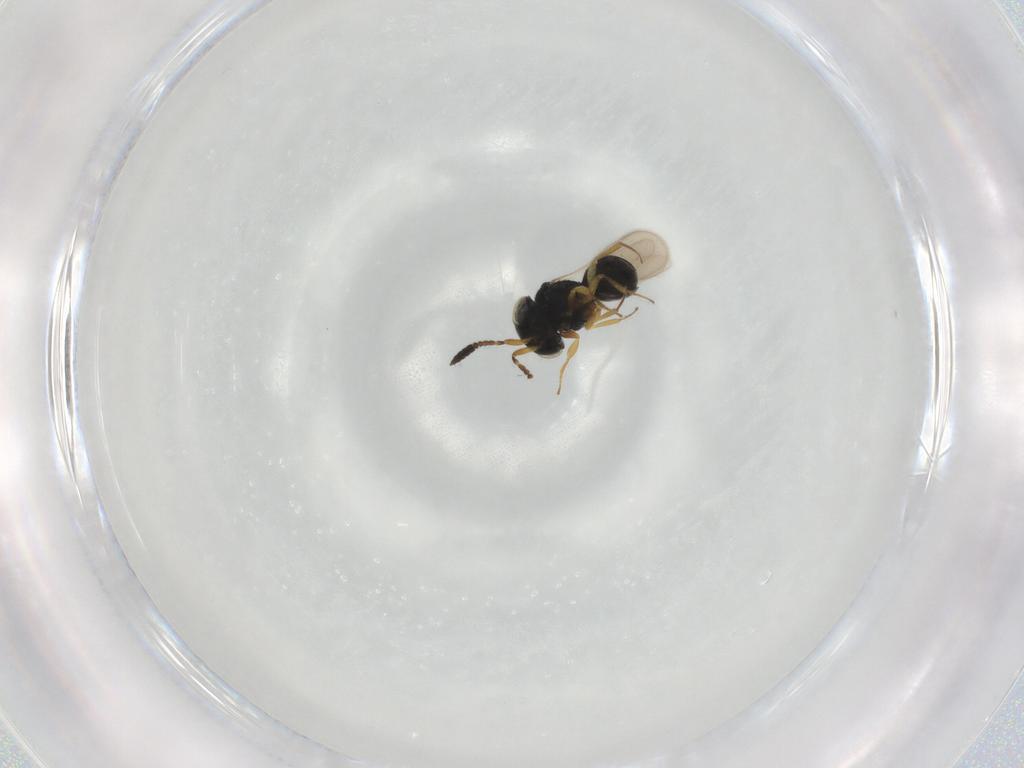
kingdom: Animalia
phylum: Arthropoda
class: Insecta
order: Hymenoptera
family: Scelionidae
